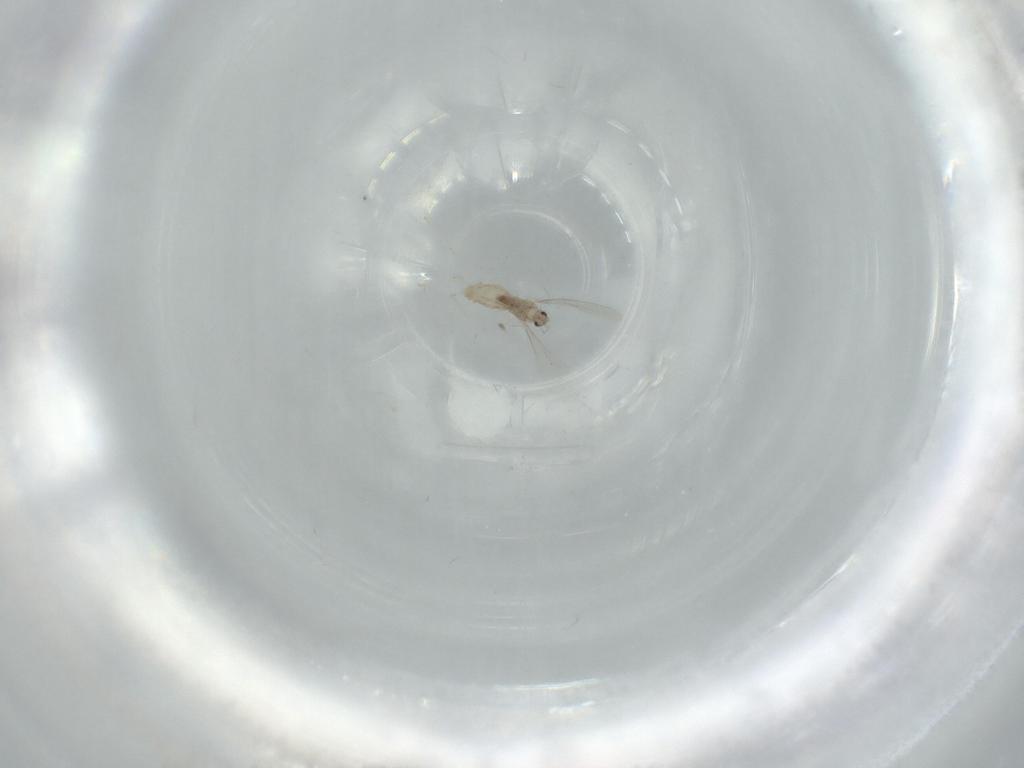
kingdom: Animalia
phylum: Arthropoda
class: Insecta
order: Diptera
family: Cecidomyiidae
